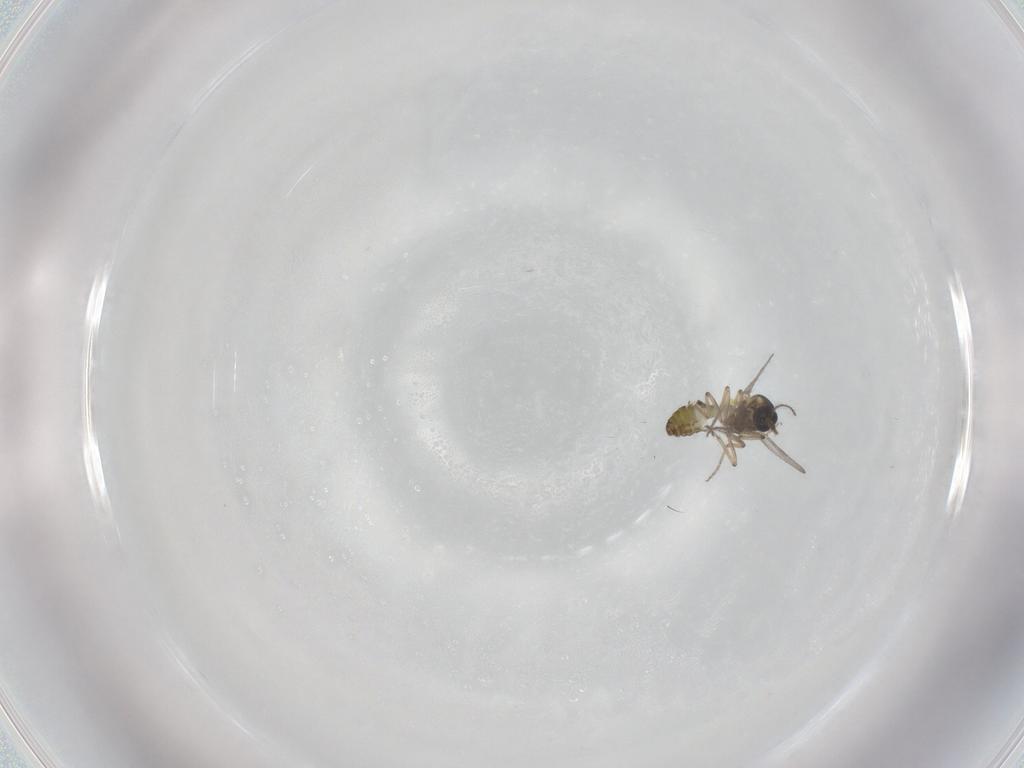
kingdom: Animalia
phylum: Arthropoda
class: Insecta
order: Diptera
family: Ceratopogonidae
